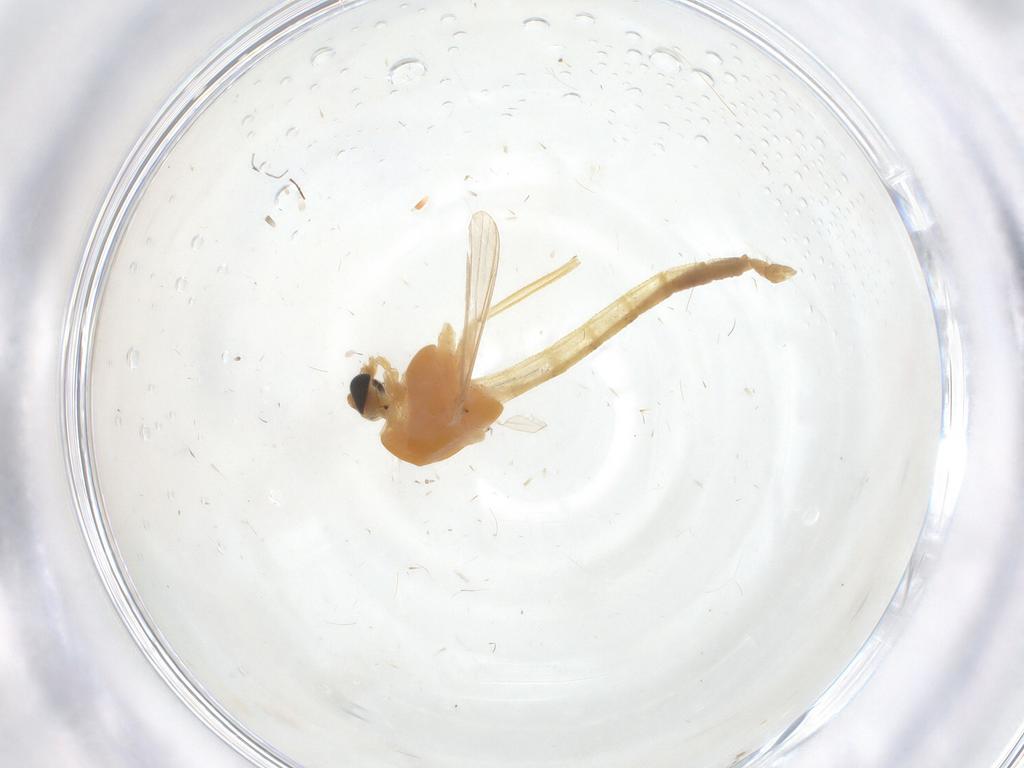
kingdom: Animalia
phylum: Arthropoda
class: Insecta
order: Diptera
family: Chironomidae
